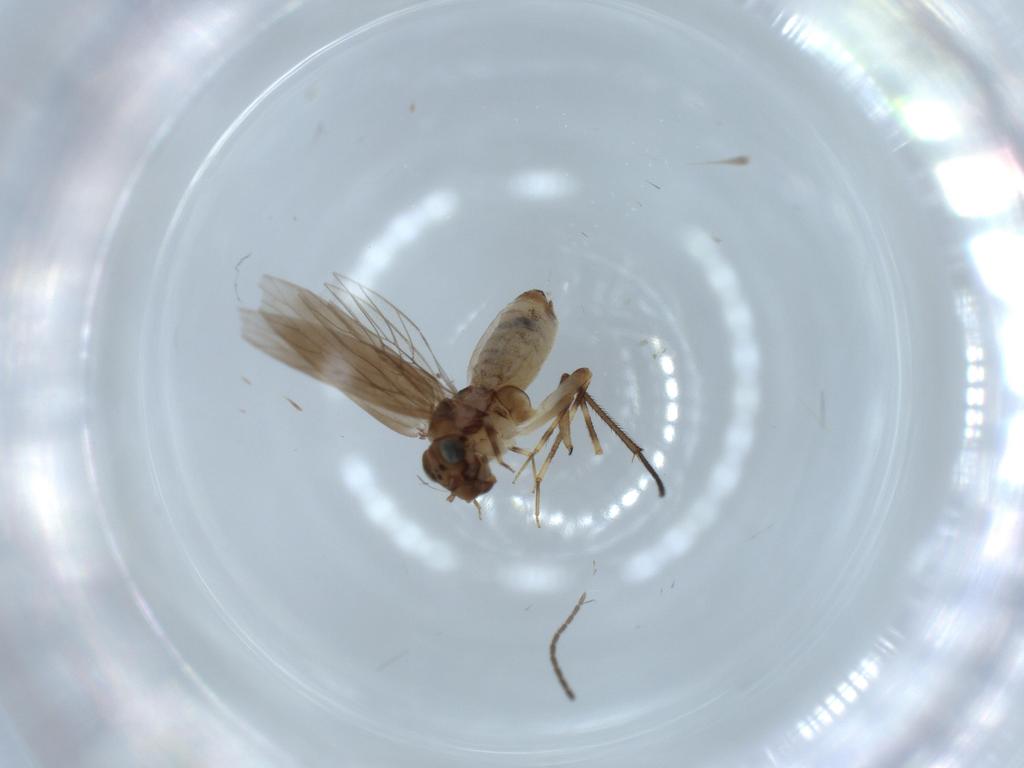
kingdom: Animalia
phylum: Arthropoda
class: Insecta
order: Psocodea
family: Lepidopsocidae
